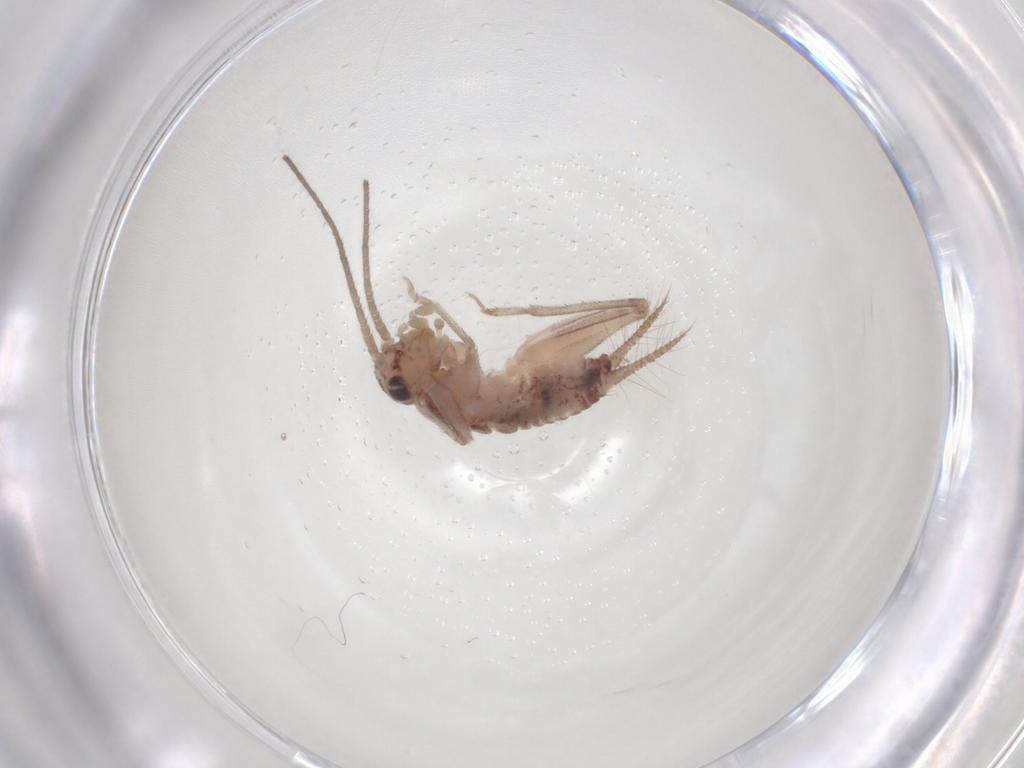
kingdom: Animalia
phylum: Arthropoda
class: Insecta
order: Orthoptera
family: Trigonidiidae
